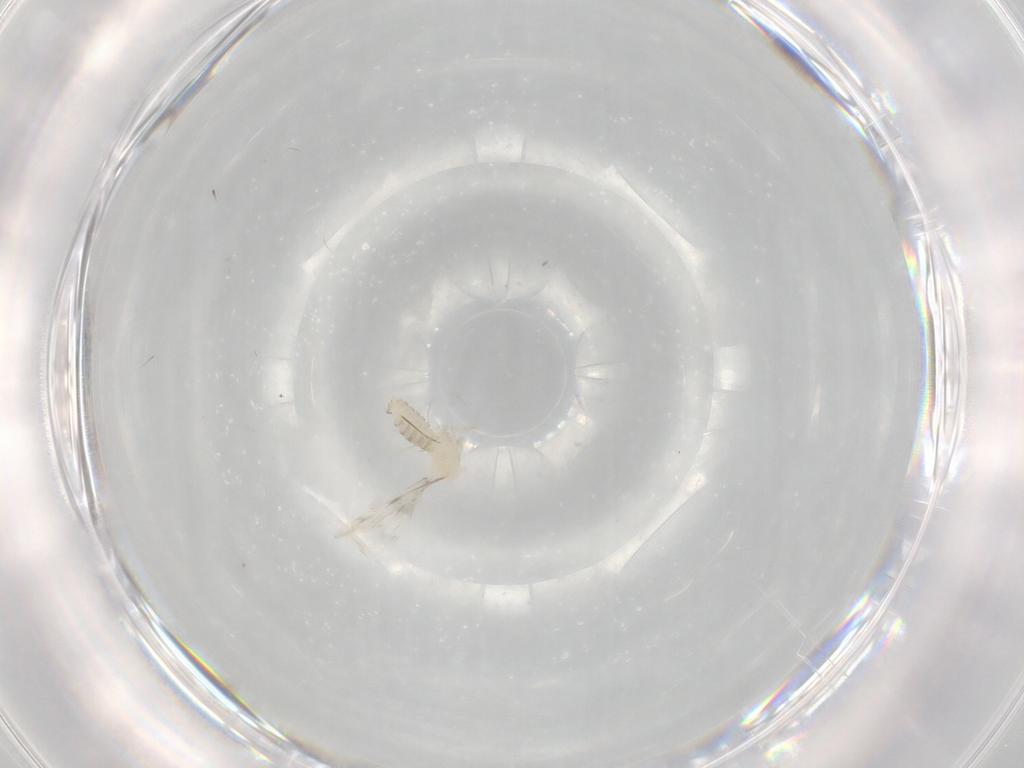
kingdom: Animalia
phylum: Arthropoda
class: Insecta
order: Diptera
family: Cecidomyiidae
